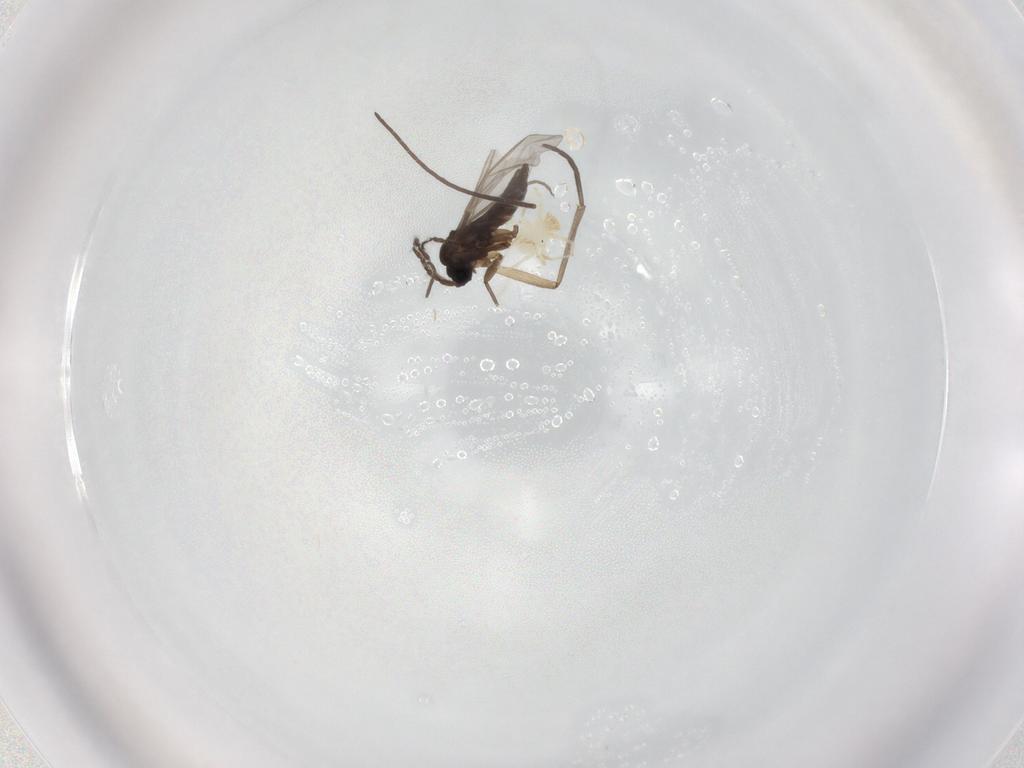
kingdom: Animalia
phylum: Arthropoda
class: Arachnida
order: Trombidiformes
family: Erythraeidae
